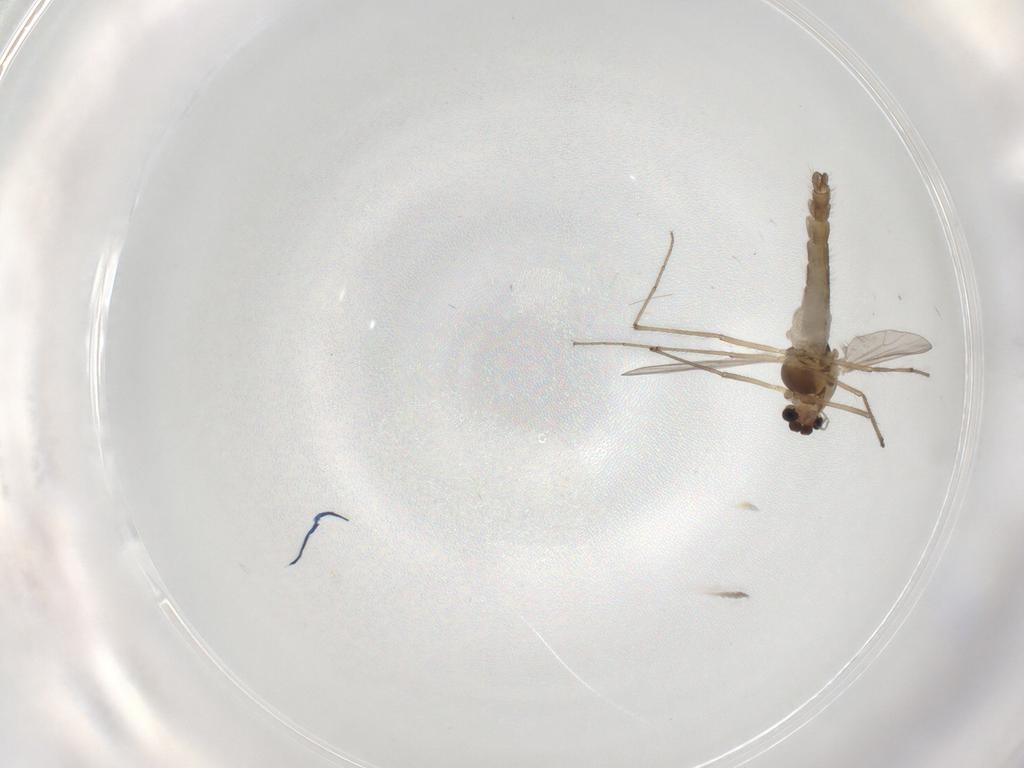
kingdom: Animalia
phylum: Arthropoda
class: Insecta
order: Diptera
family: Chironomidae
